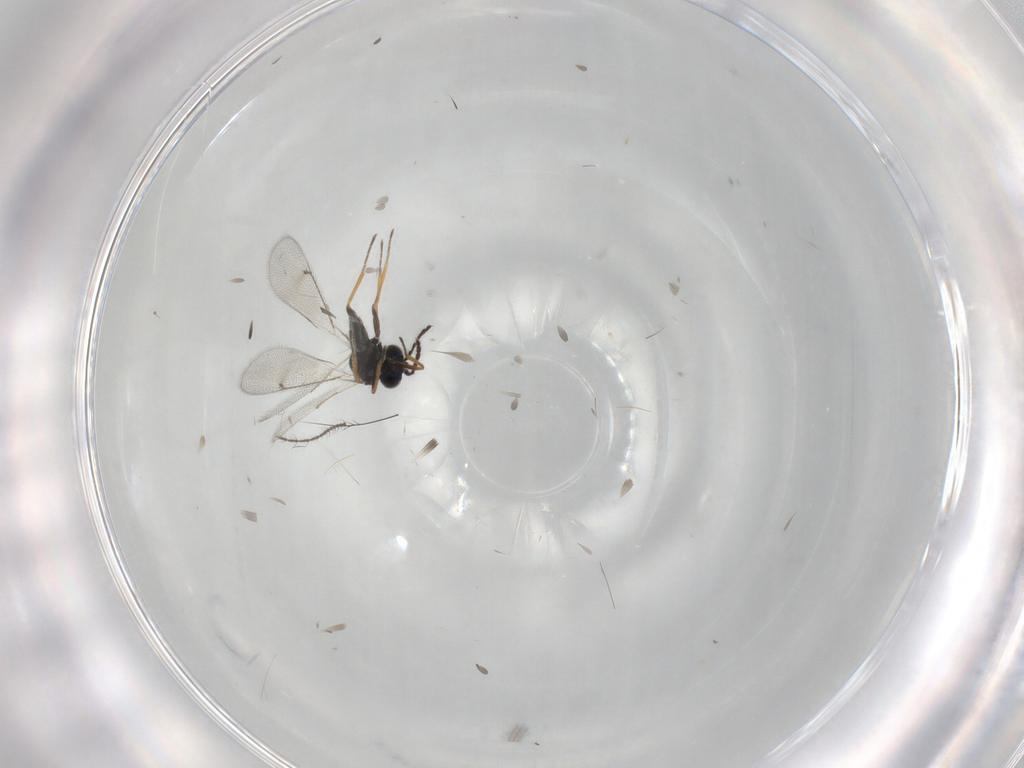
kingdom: Animalia
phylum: Arthropoda
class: Insecta
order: Hymenoptera
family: Eulophidae
